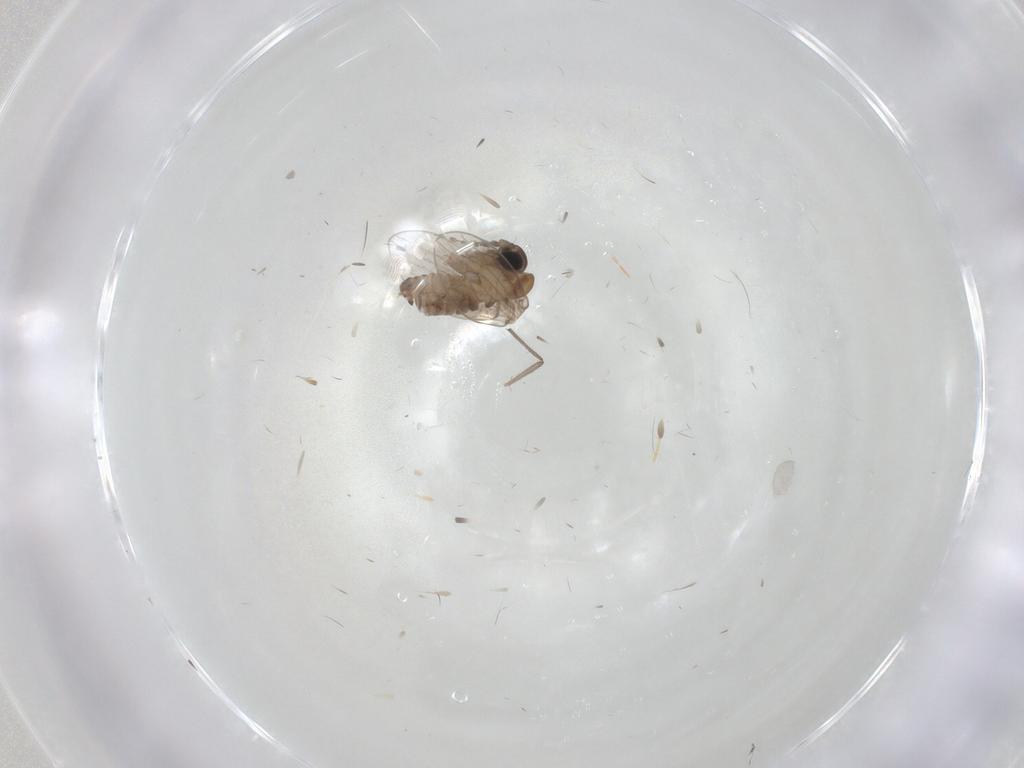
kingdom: Animalia
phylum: Arthropoda
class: Insecta
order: Diptera
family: Chironomidae
